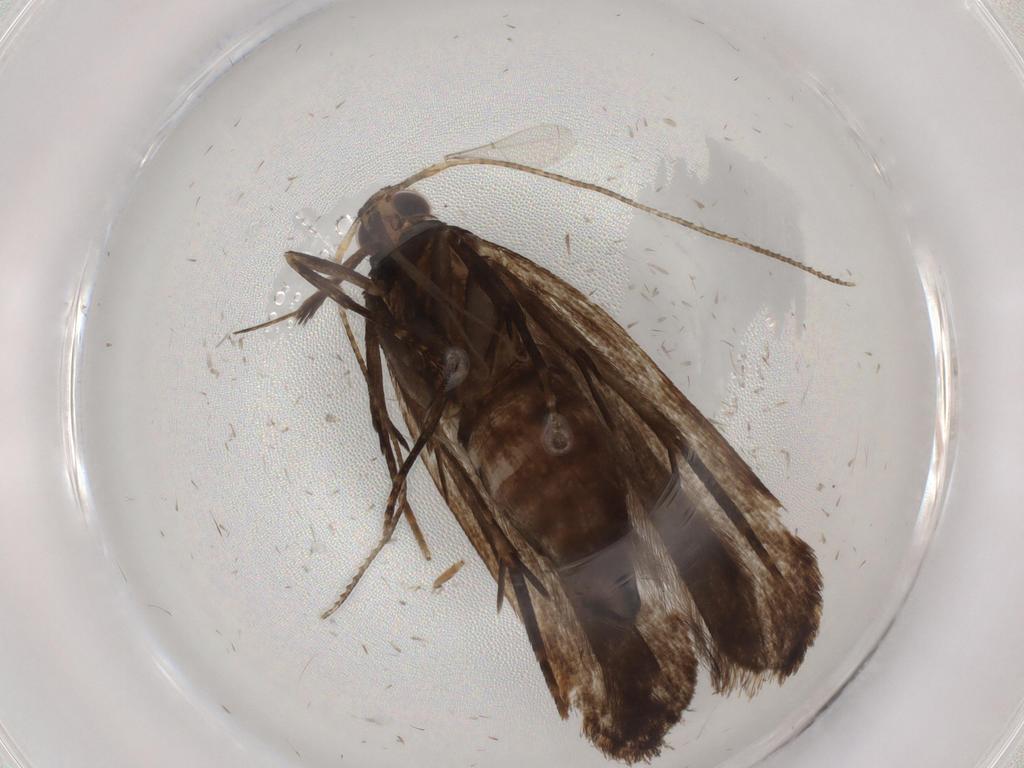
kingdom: Animalia
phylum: Arthropoda
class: Insecta
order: Lepidoptera
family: Gelechiidae
